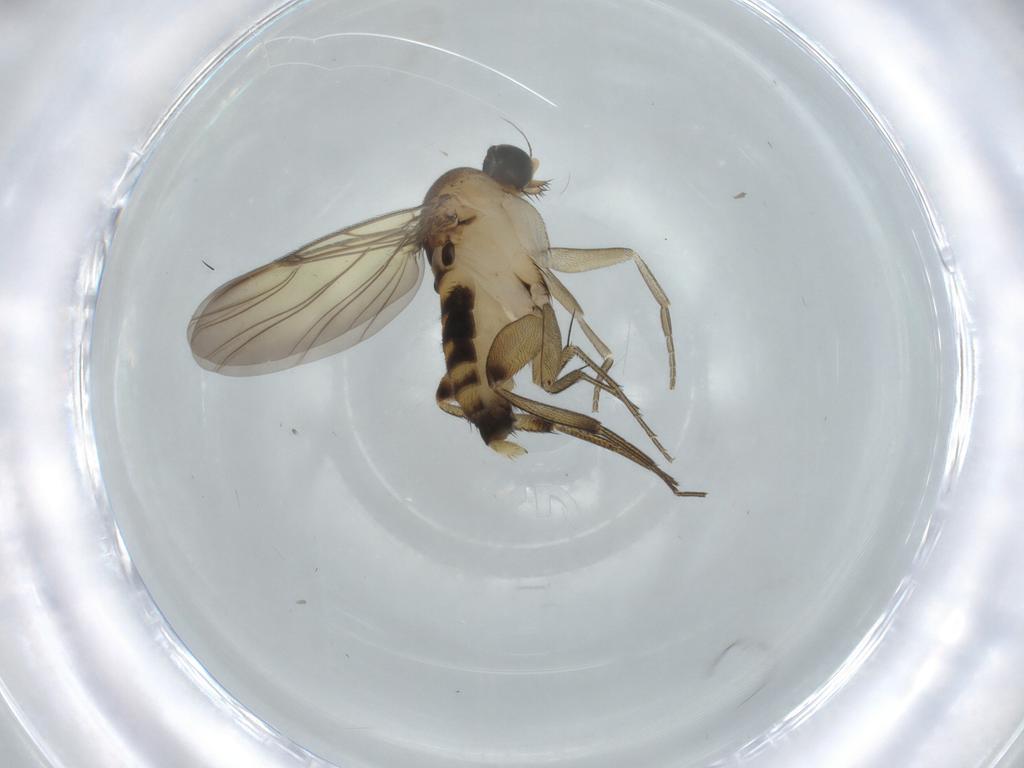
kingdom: Animalia
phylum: Arthropoda
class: Insecta
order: Diptera
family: Phoridae
